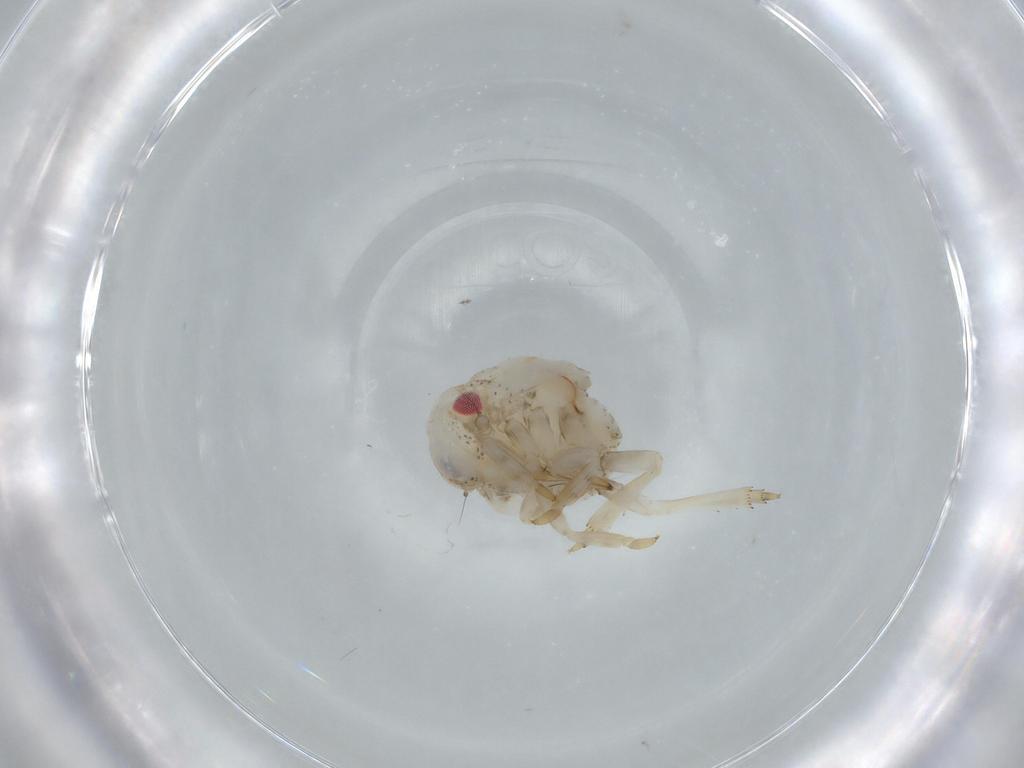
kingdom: Animalia
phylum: Arthropoda
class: Insecta
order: Hemiptera
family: Acanaloniidae
